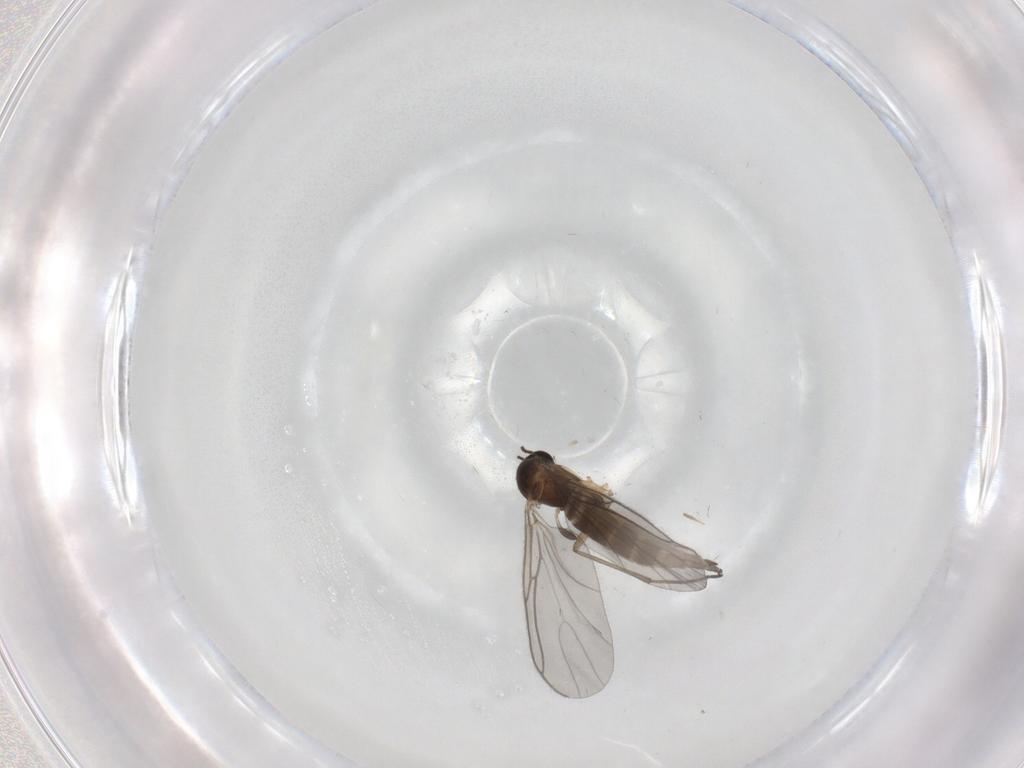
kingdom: Animalia
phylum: Arthropoda
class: Insecta
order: Diptera
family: Sciaridae
